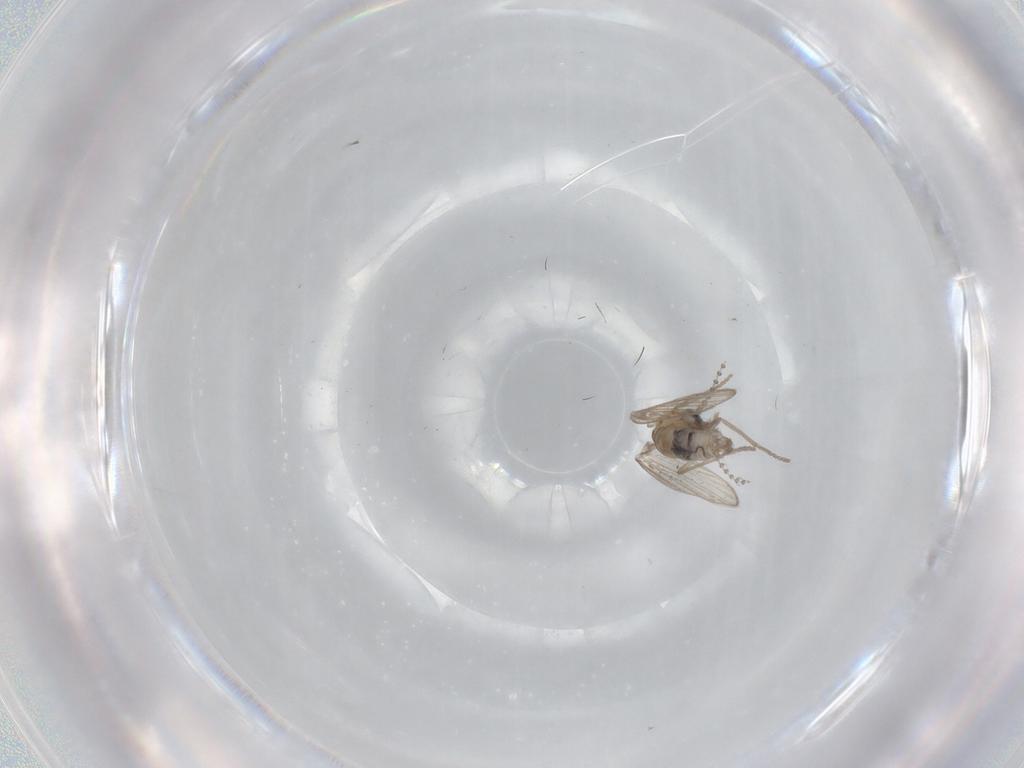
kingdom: Animalia
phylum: Arthropoda
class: Insecta
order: Diptera
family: Psychodidae
